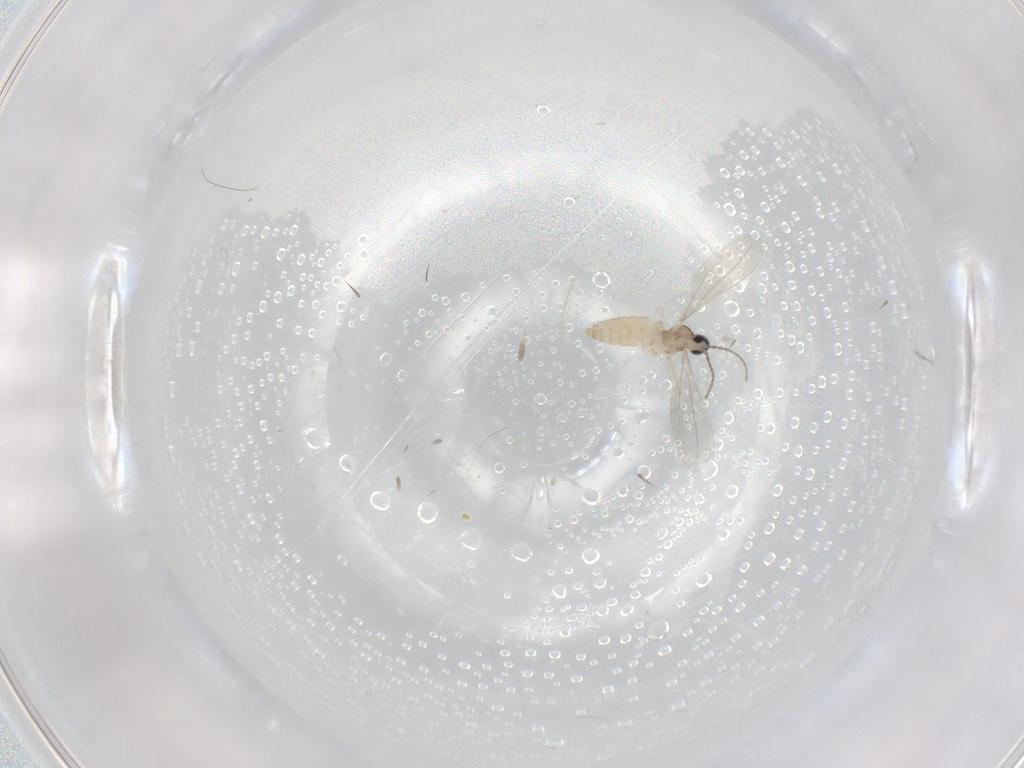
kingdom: Animalia
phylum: Arthropoda
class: Insecta
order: Diptera
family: Cecidomyiidae
